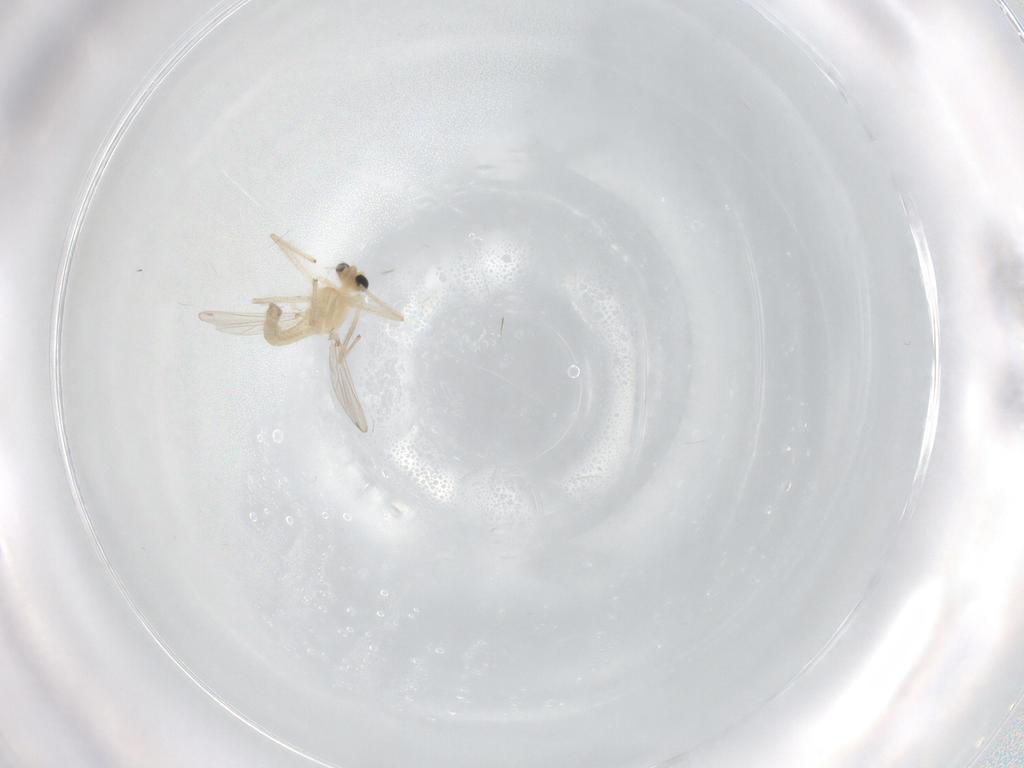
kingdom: Animalia
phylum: Arthropoda
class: Insecta
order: Diptera
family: Chironomidae
